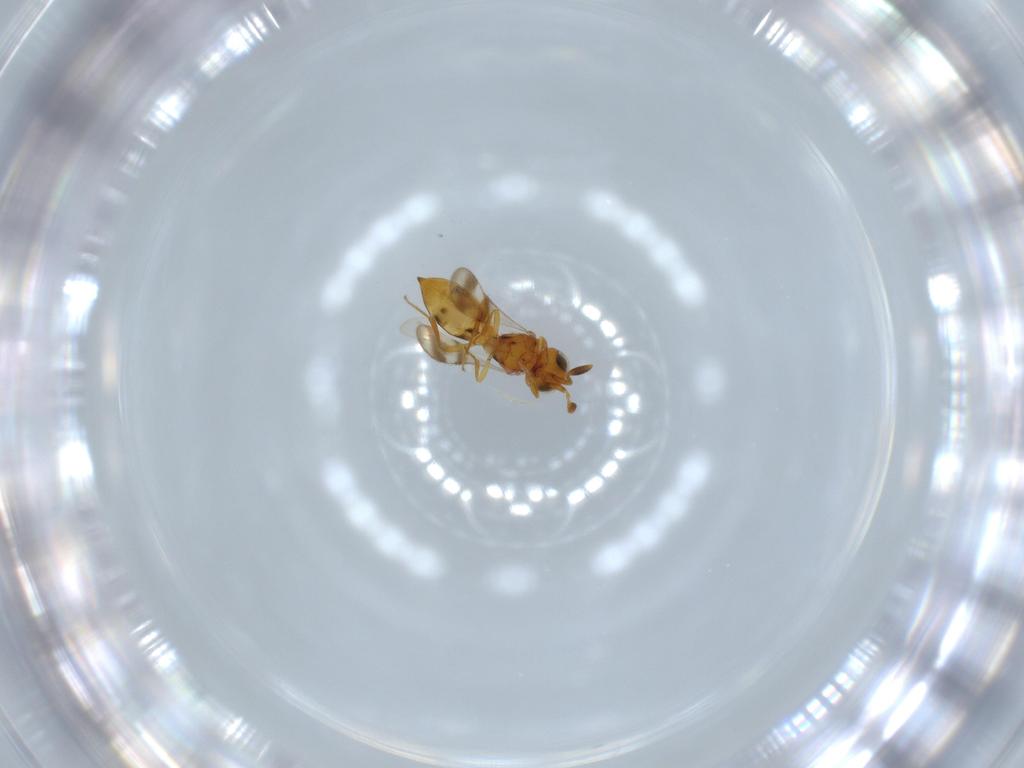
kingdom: Animalia
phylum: Arthropoda
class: Insecta
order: Hymenoptera
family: Scelionidae
